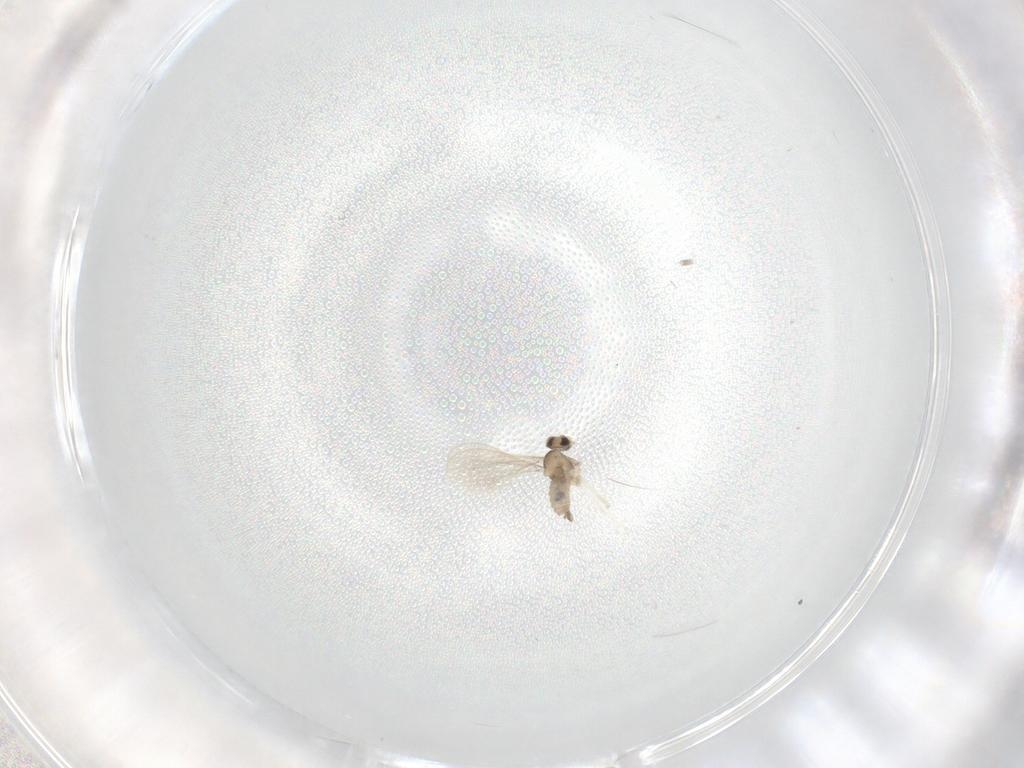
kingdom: Animalia
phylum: Arthropoda
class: Insecta
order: Diptera
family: Cecidomyiidae
